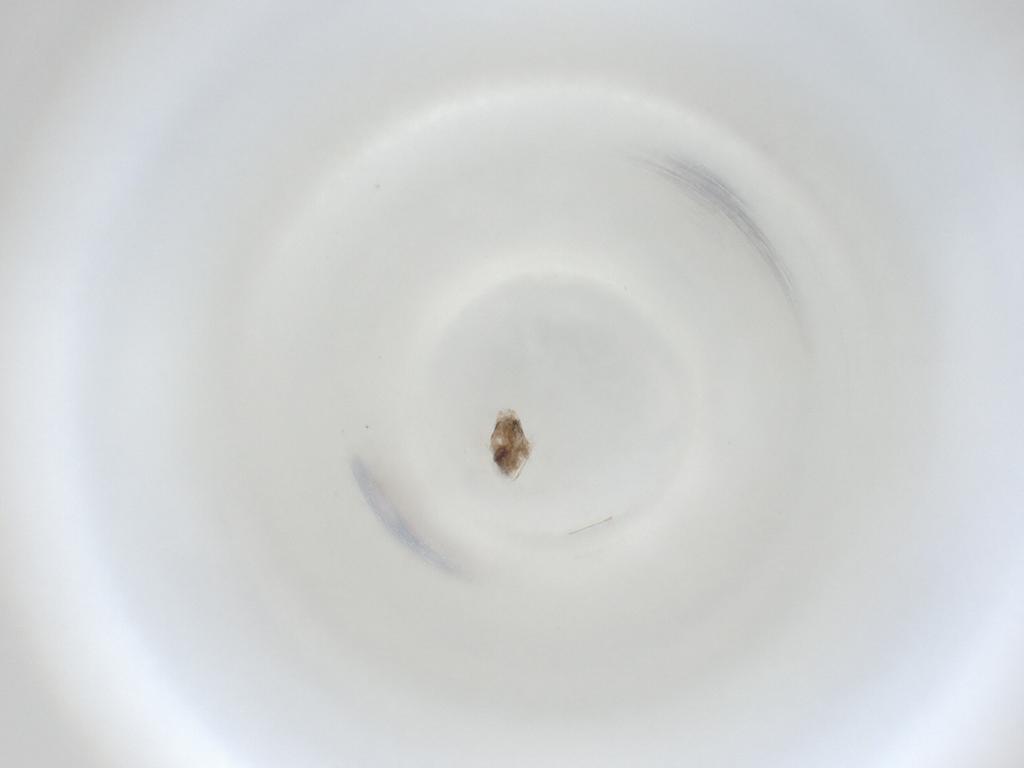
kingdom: Animalia
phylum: Arthropoda
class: Insecta
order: Diptera
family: Cecidomyiidae
